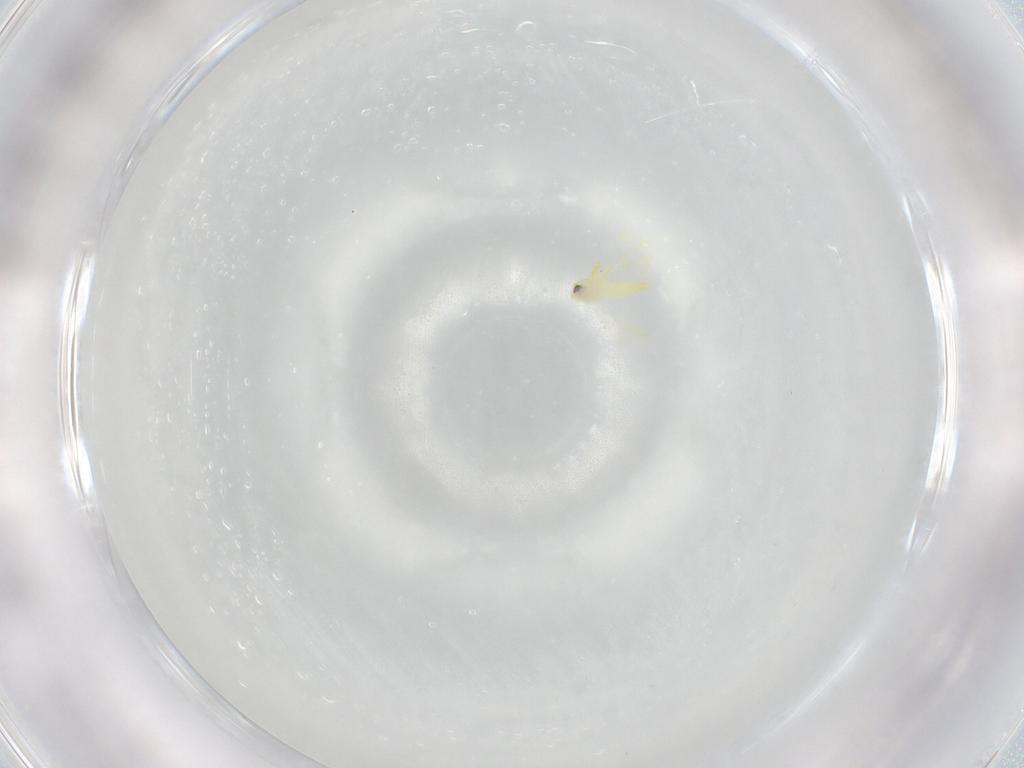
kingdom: Animalia
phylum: Arthropoda
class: Insecta
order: Hemiptera
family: Aleyrodidae
